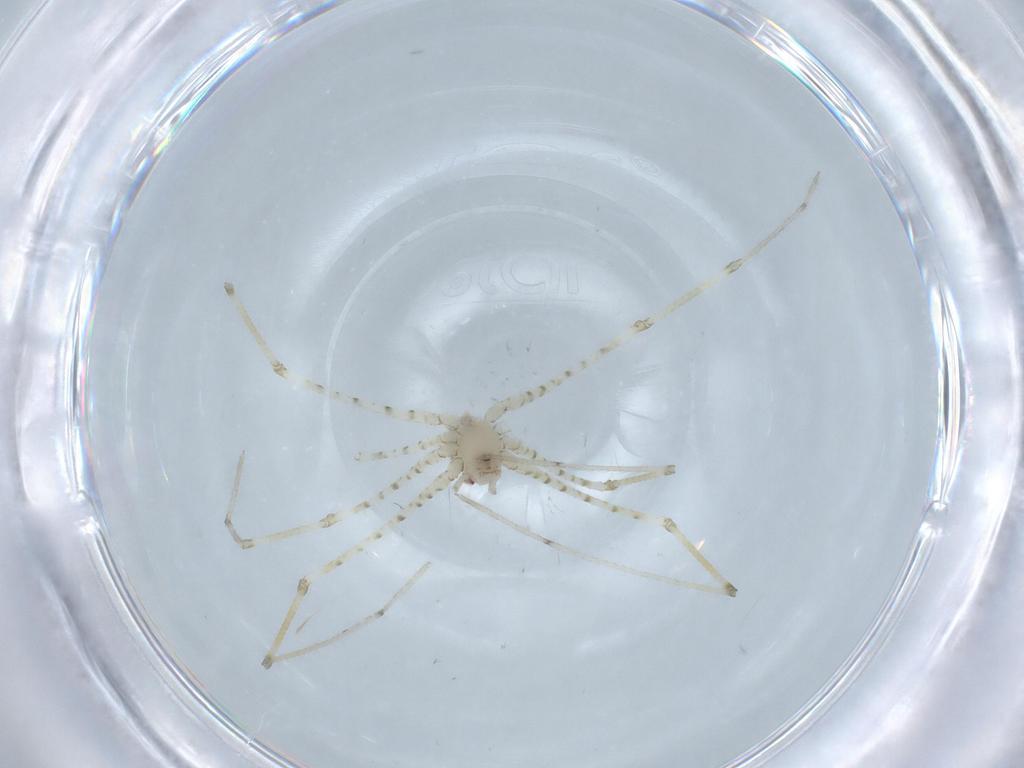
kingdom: Animalia
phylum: Arthropoda
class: Arachnida
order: Araneae
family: Pholcidae
